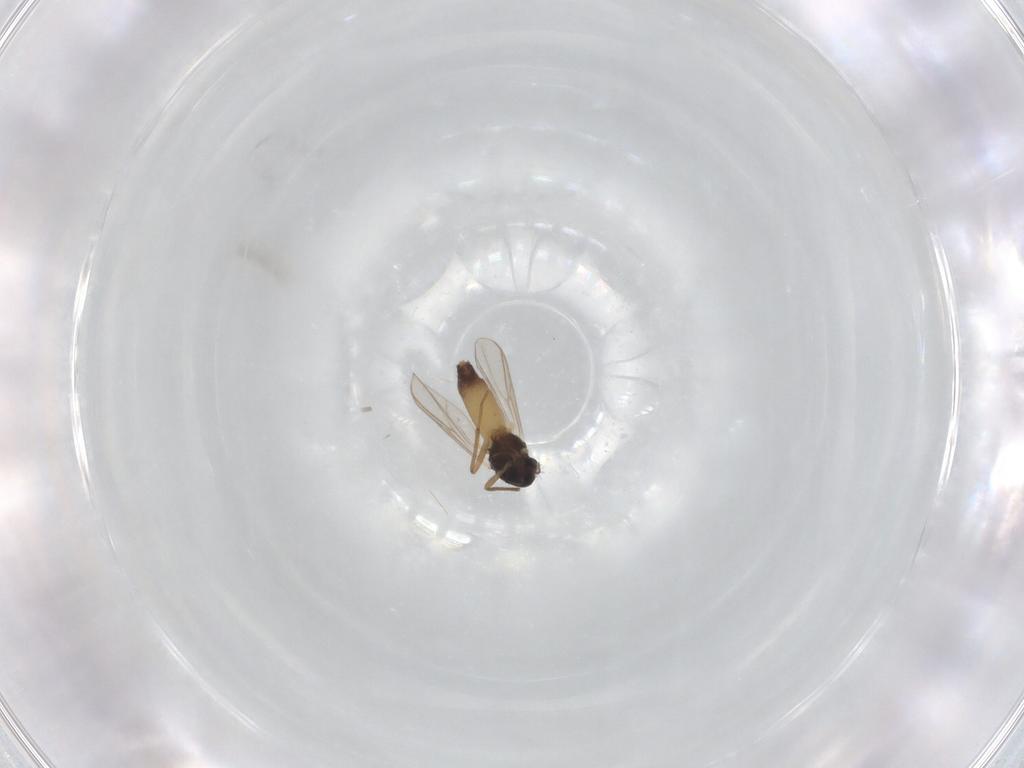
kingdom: Animalia
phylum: Arthropoda
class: Insecta
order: Diptera
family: Chironomidae
